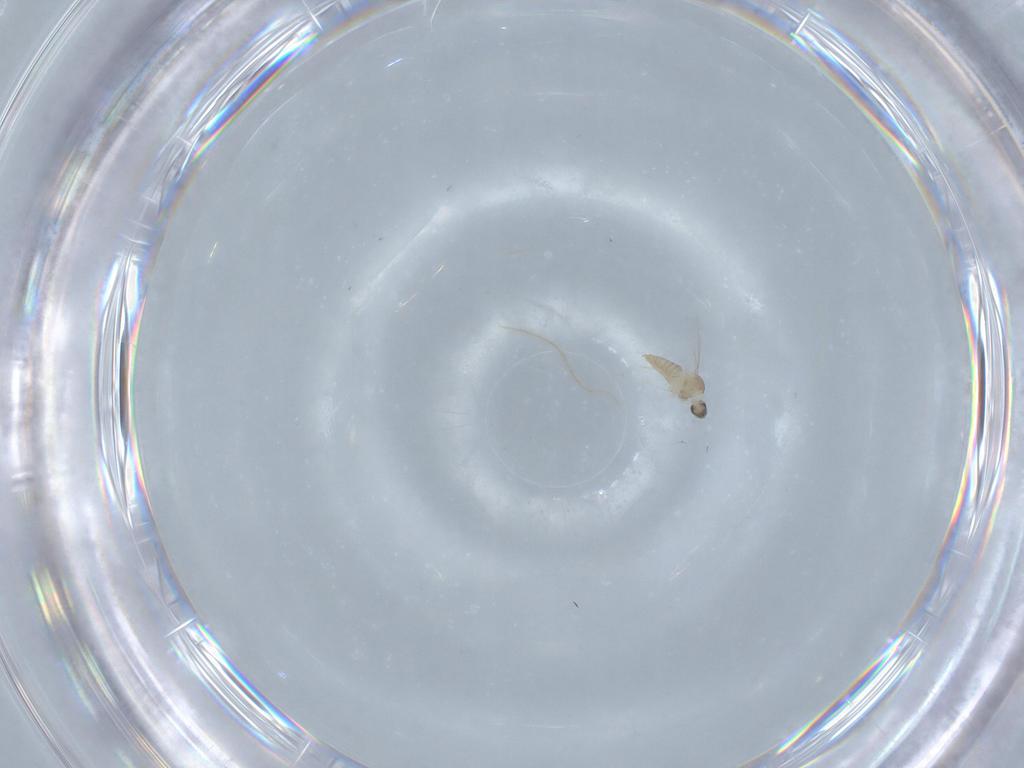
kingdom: Animalia
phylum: Arthropoda
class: Insecta
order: Diptera
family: Cecidomyiidae
